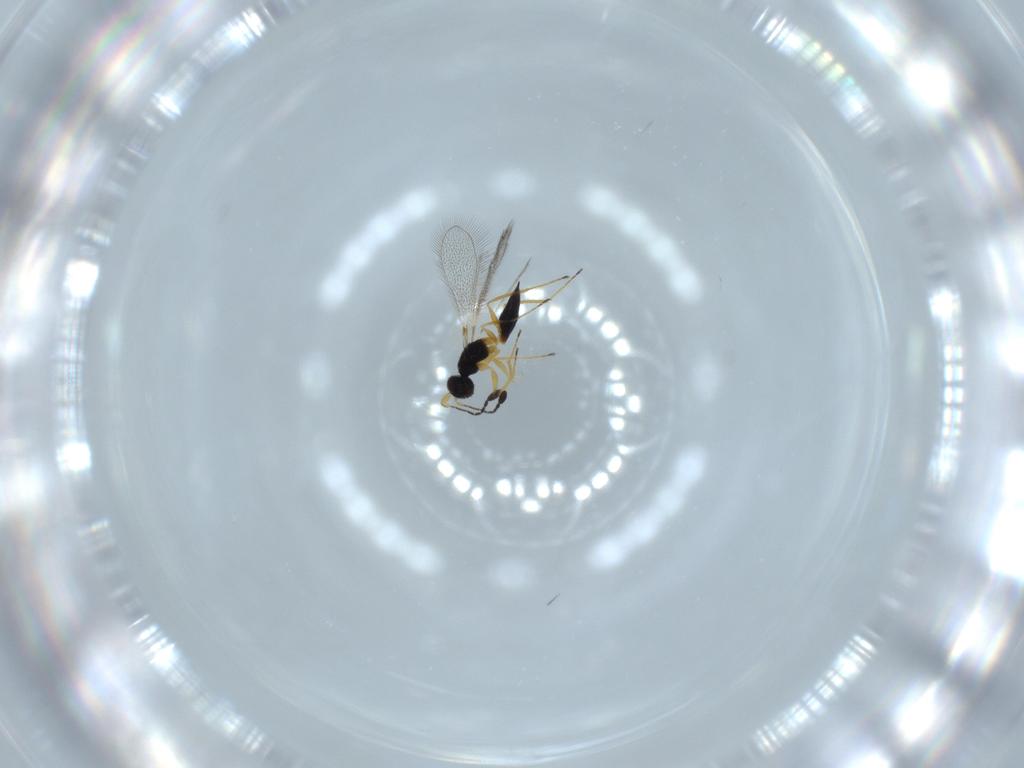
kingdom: Animalia
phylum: Arthropoda
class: Insecta
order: Hymenoptera
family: Mymaridae
